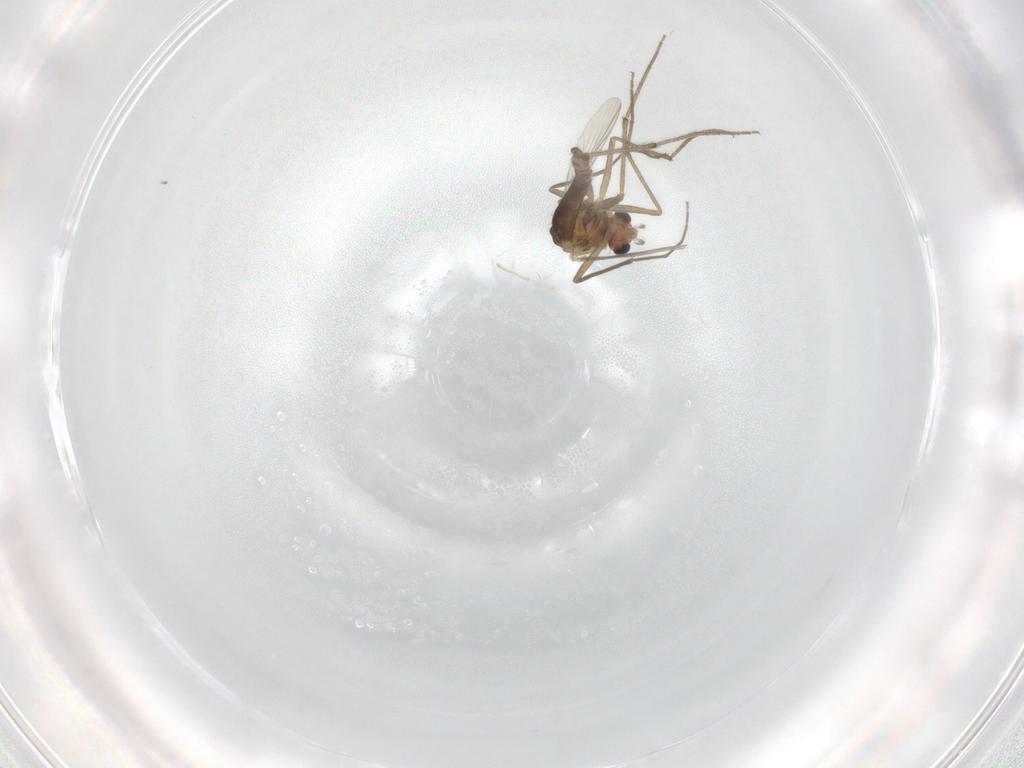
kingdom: Animalia
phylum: Arthropoda
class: Insecta
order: Diptera
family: Chironomidae
